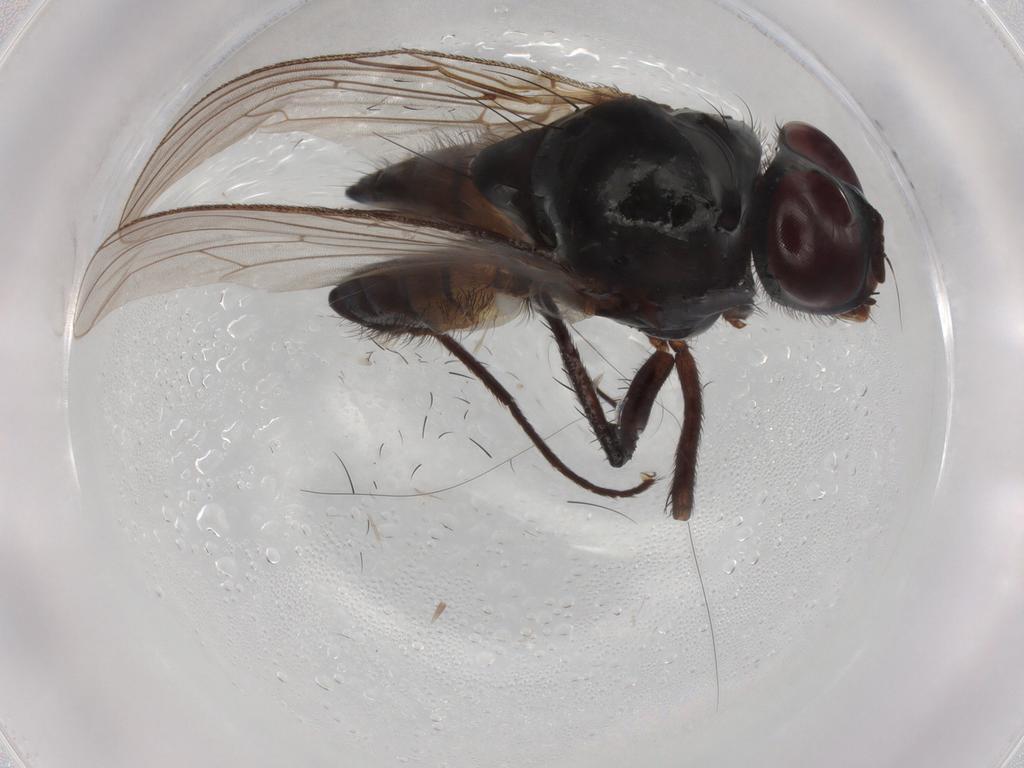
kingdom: Animalia
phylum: Arthropoda
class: Insecta
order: Diptera
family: Anthomyiidae
